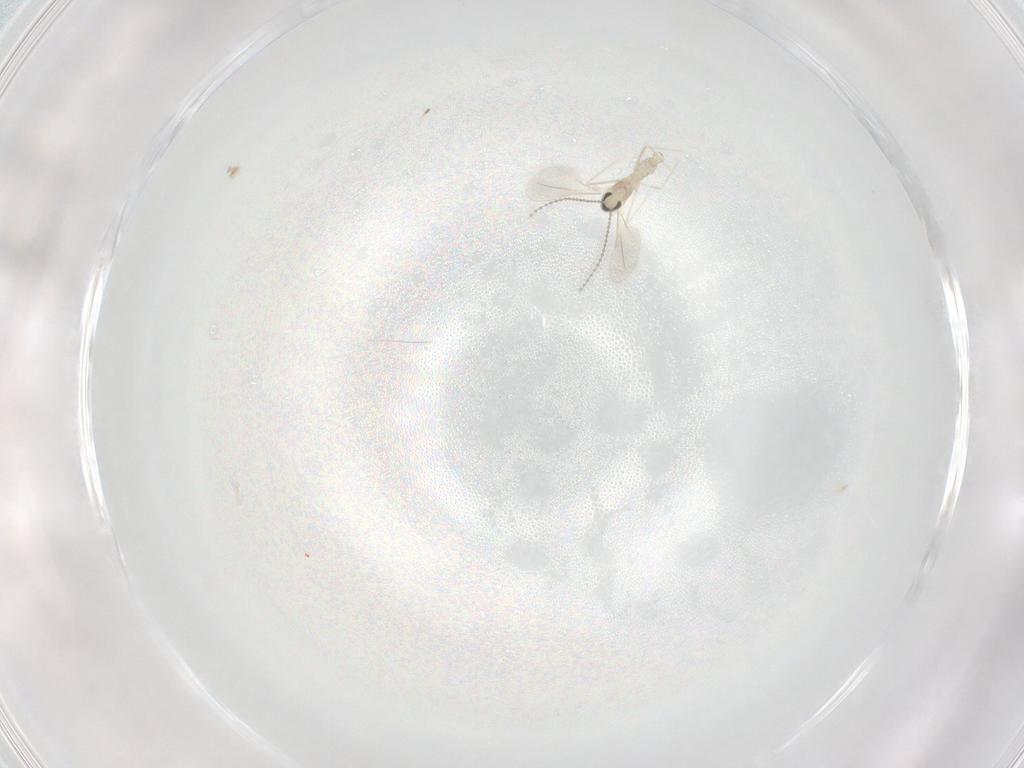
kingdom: Animalia
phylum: Arthropoda
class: Insecta
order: Diptera
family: Cecidomyiidae
